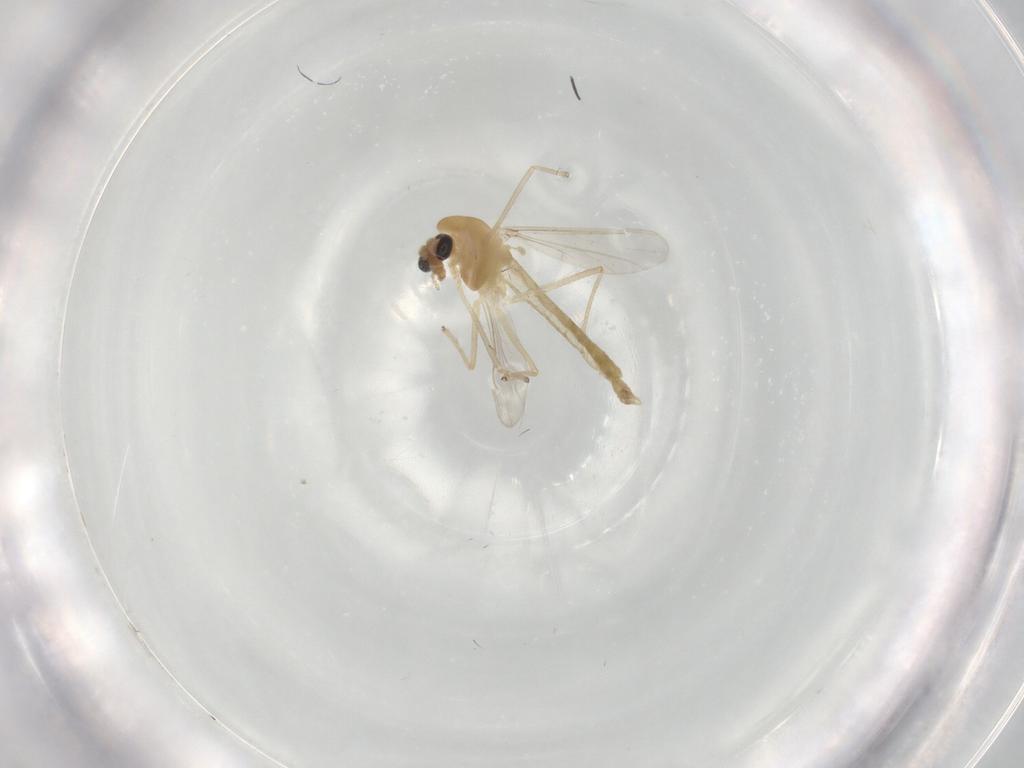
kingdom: Animalia
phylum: Arthropoda
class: Insecta
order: Diptera
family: Chironomidae
